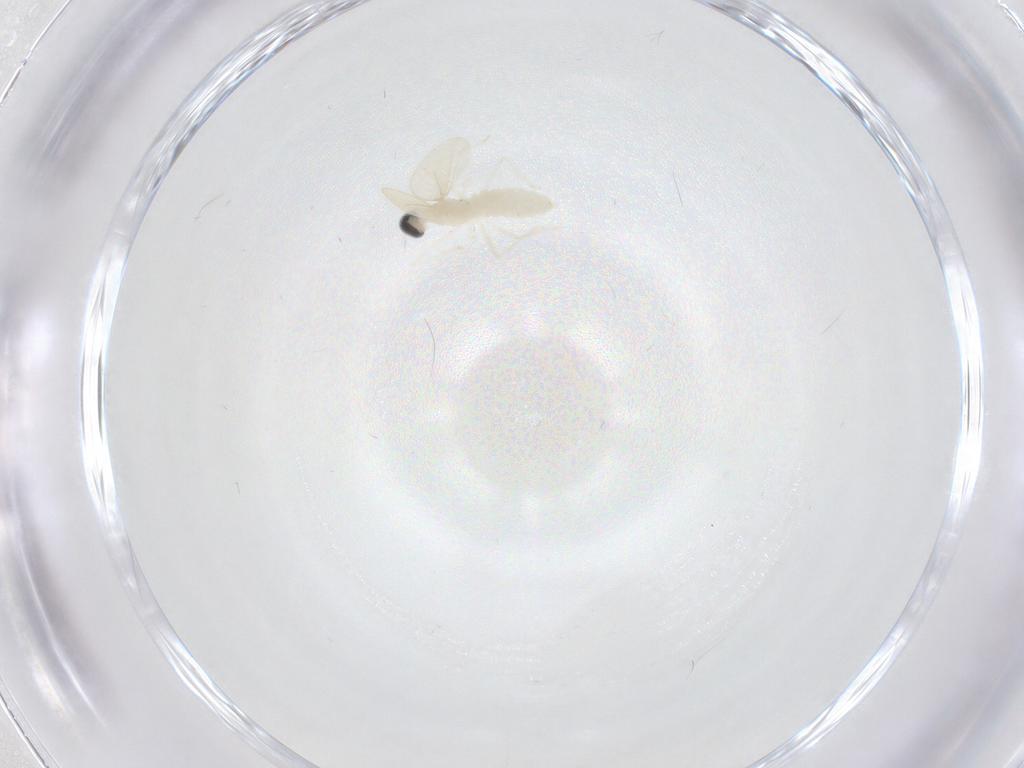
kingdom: Animalia
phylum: Arthropoda
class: Insecta
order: Diptera
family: Cecidomyiidae
